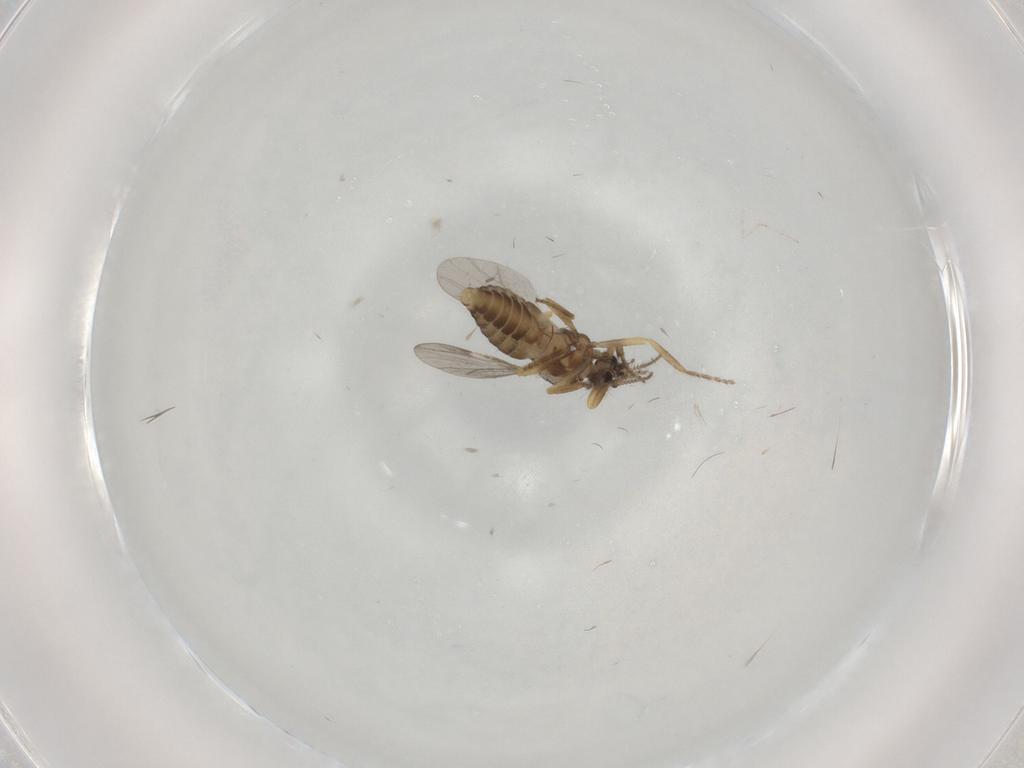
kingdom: Animalia
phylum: Arthropoda
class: Insecta
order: Diptera
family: Ceratopogonidae
